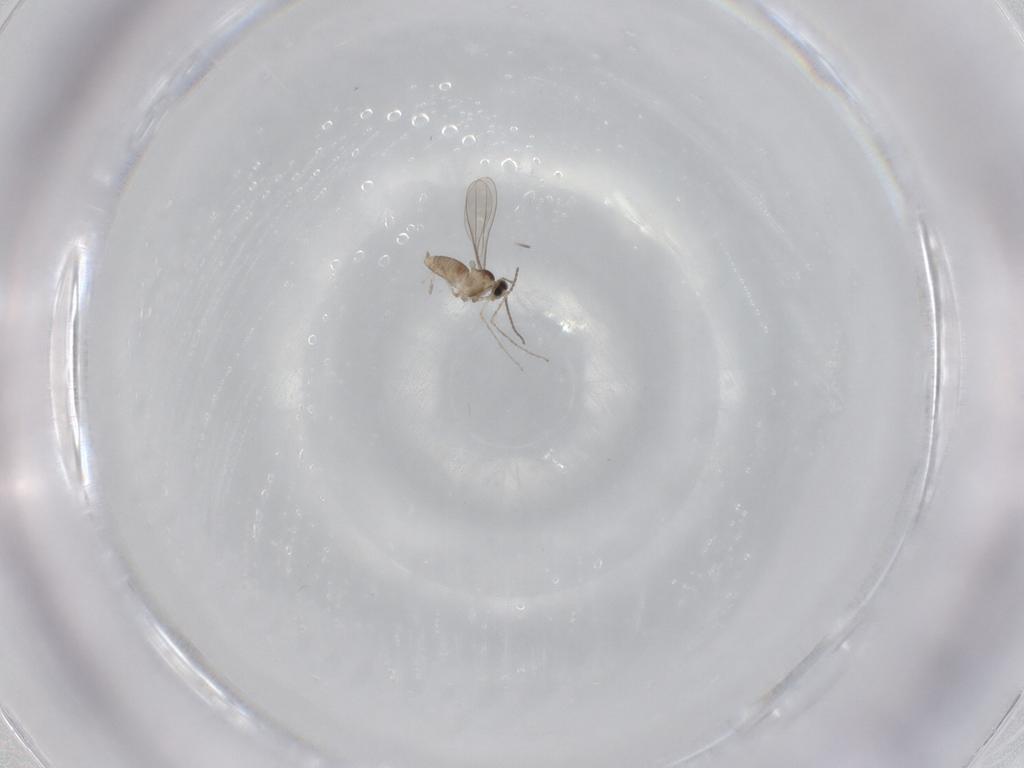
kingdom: Animalia
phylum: Arthropoda
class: Insecta
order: Diptera
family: Cecidomyiidae
